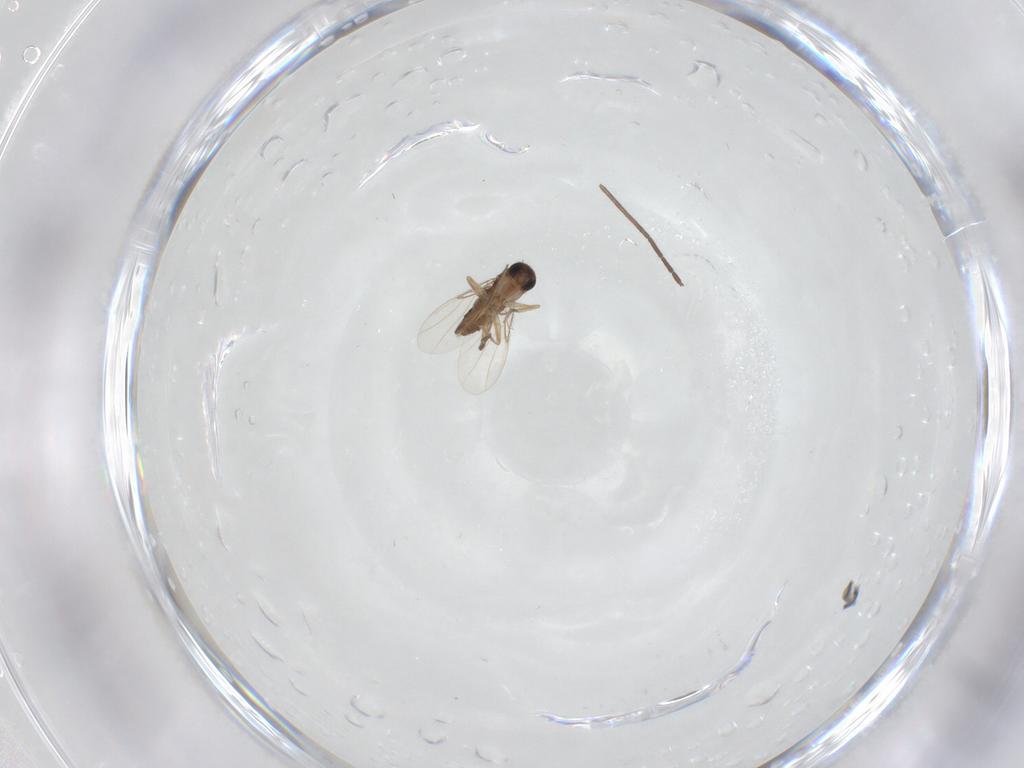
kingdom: Animalia
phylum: Arthropoda
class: Insecta
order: Diptera
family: Phoridae
